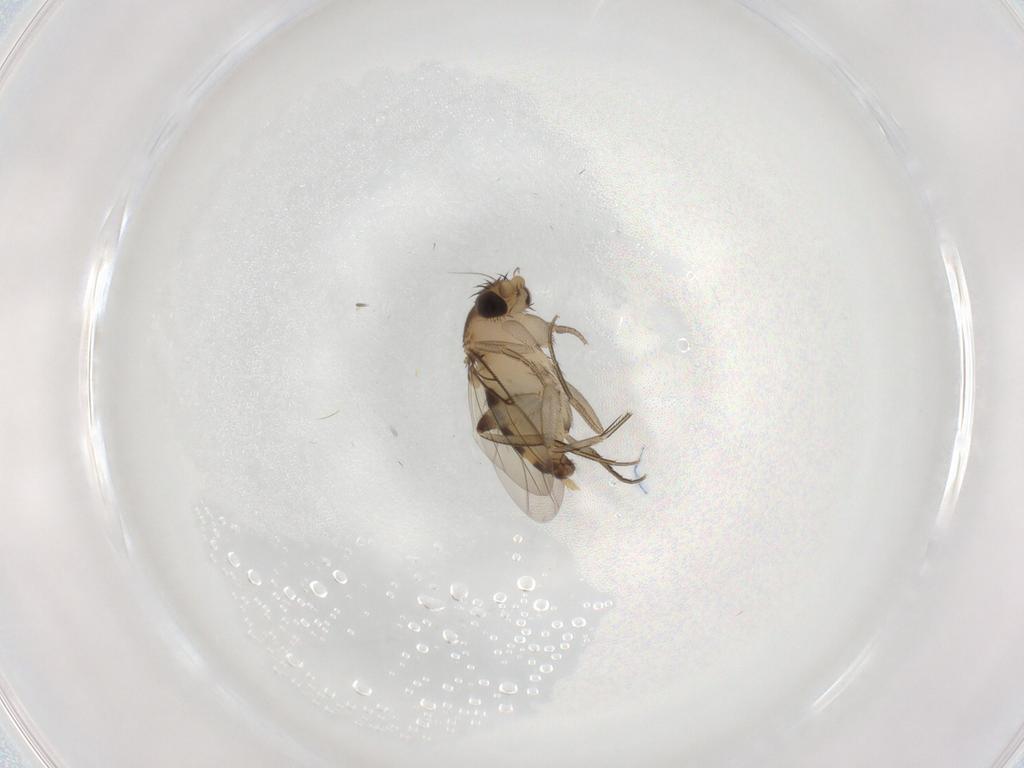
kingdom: Animalia
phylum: Arthropoda
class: Insecta
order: Diptera
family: Phoridae
